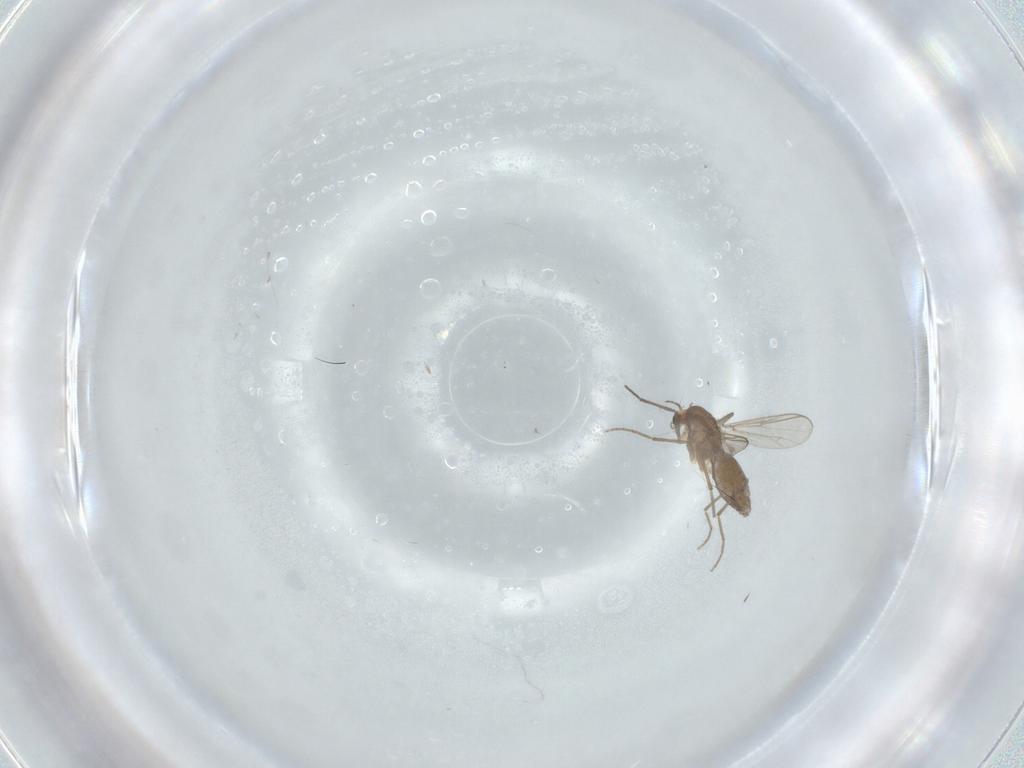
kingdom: Animalia
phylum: Arthropoda
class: Insecta
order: Diptera
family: Chironomidae
